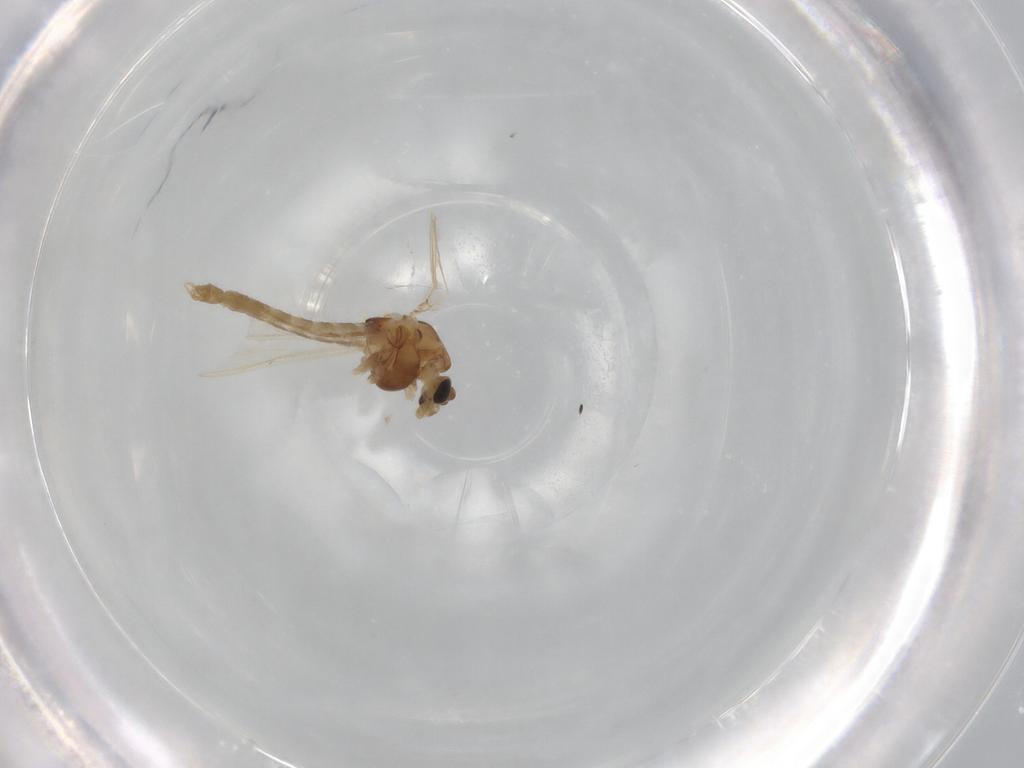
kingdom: Animalia
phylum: Arthropoda
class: Insecta
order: Diptera
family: Chironomidae
